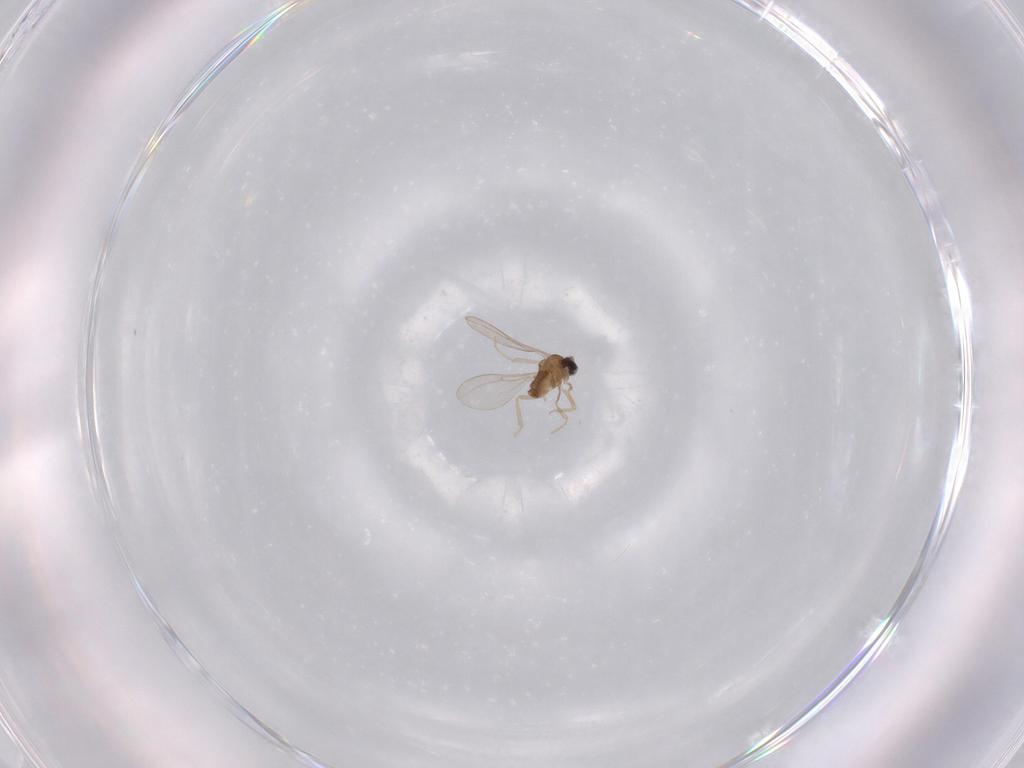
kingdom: Animalia
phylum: Arthropoda
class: Insecta
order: Diptera
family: Cecidomyiidae
